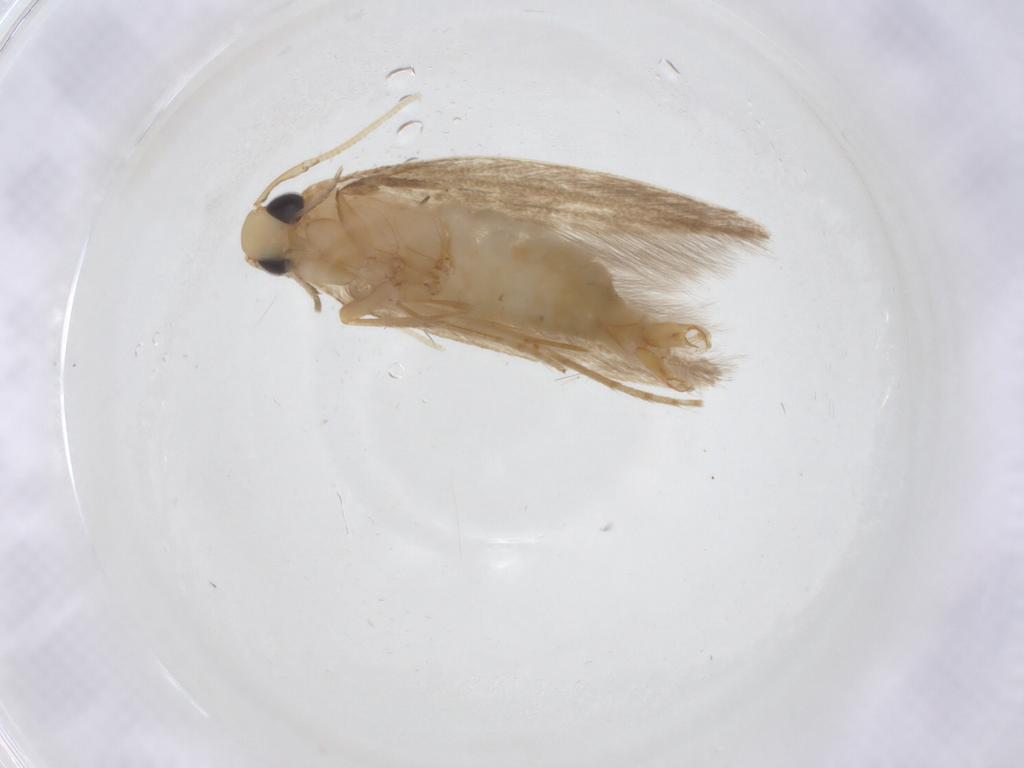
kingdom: Animalia
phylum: Arthropoda
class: Insecta
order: Lepidoptera
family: Tineidae
